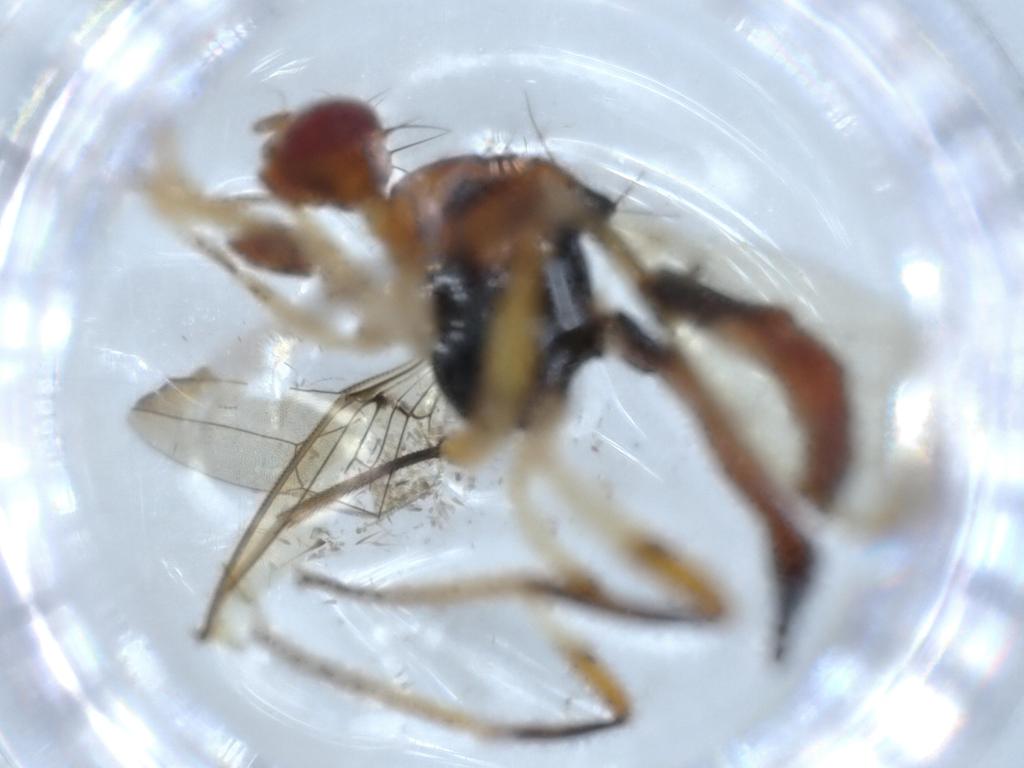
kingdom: Animalia
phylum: Arthropoda
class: Insecta
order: Diptera
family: Richardiidae
